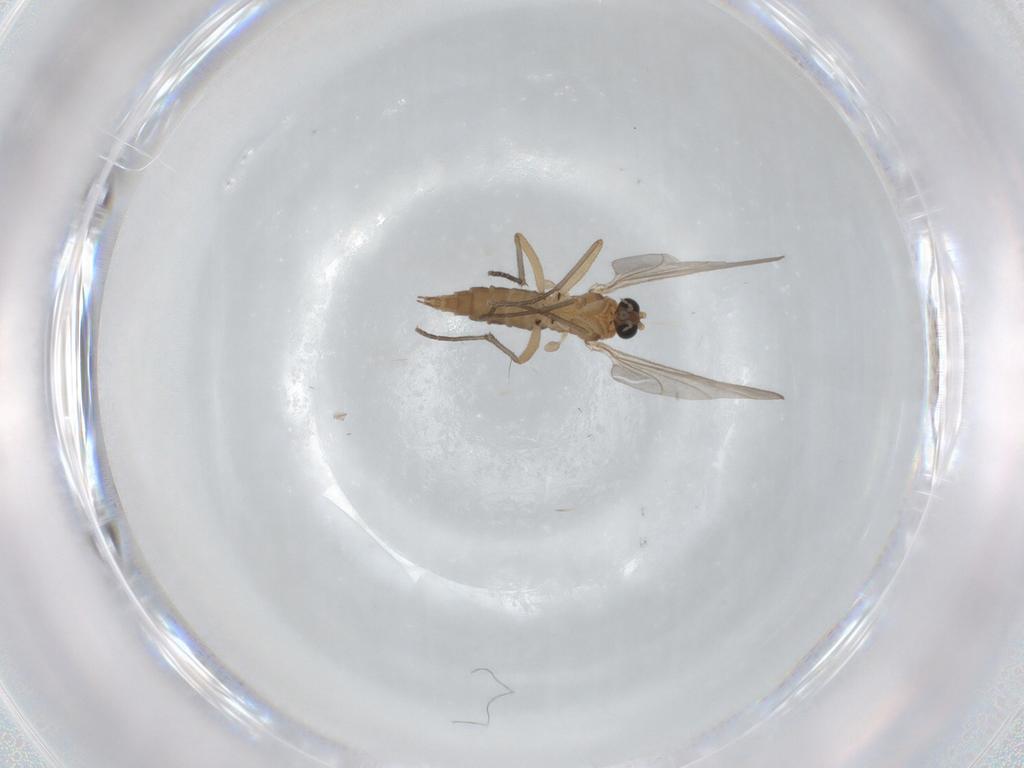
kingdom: Animalia
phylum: Arthropoda
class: Insecta
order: Diptera
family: Sciaridae
